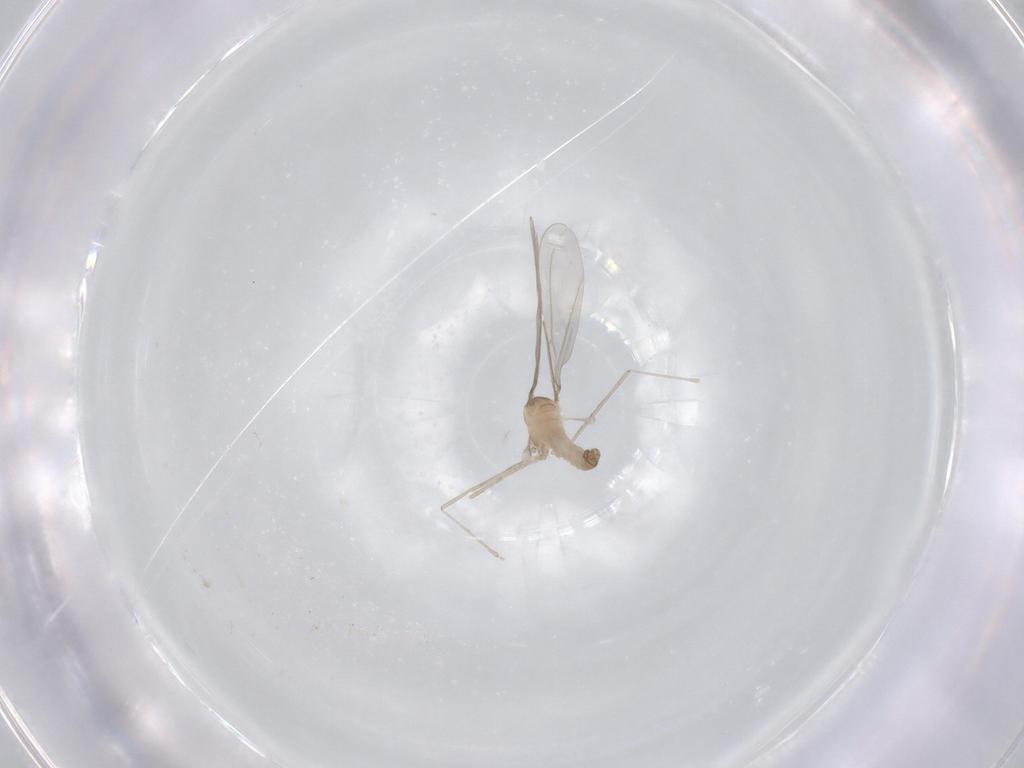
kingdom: Animalia
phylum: Arthropoda
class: Insecta
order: Diptera
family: Cecidomyiidae
